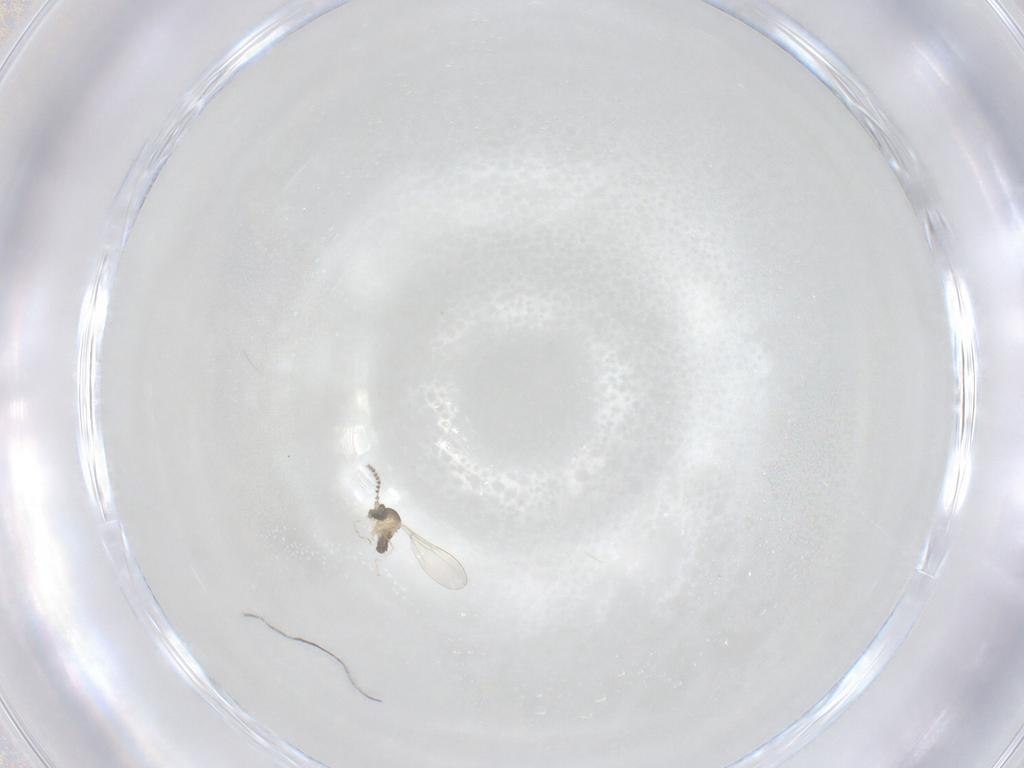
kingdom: Animalia
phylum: Arthropoda
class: Insecta
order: Diptera
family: Cecidomyiidae
